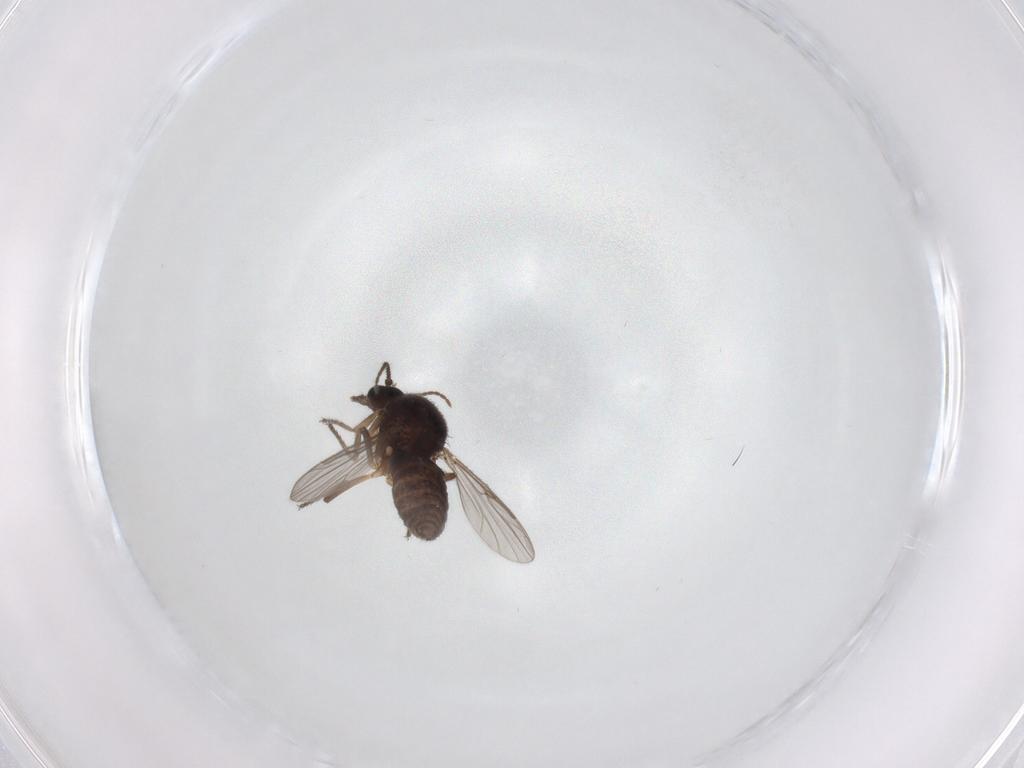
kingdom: Animalia
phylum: Arthropoda
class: Insecta
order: Diptera
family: Ceratopogonidae
